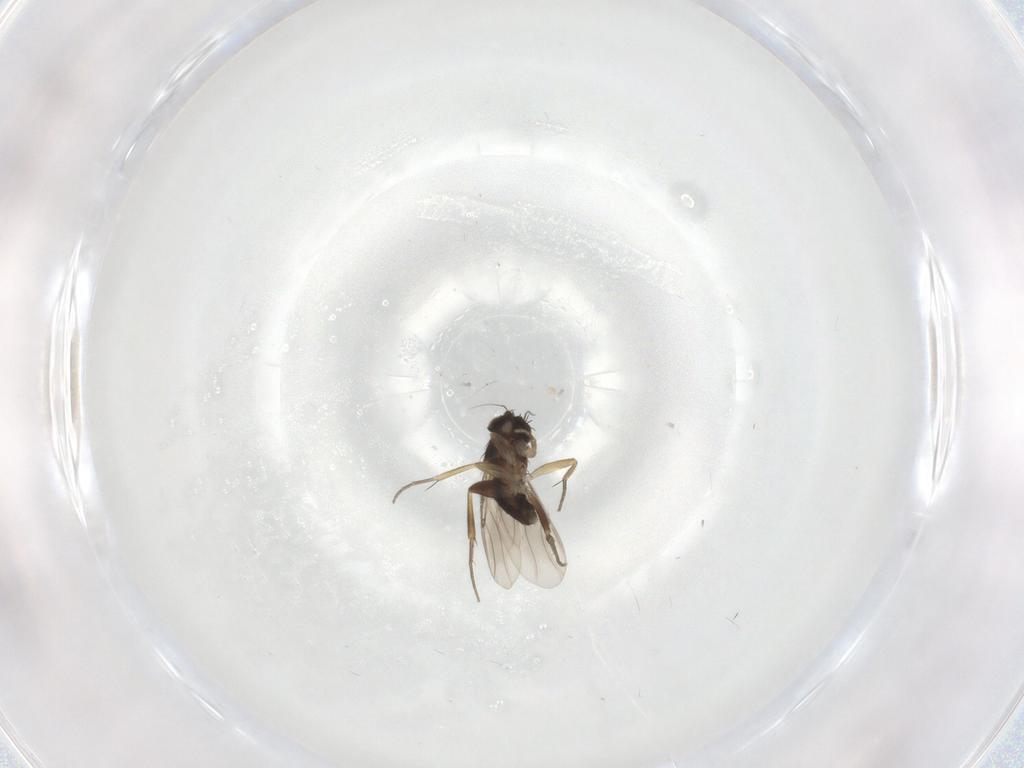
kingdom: Animalia
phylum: Arthropoda
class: Insecta
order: Diptera
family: Phoridae
